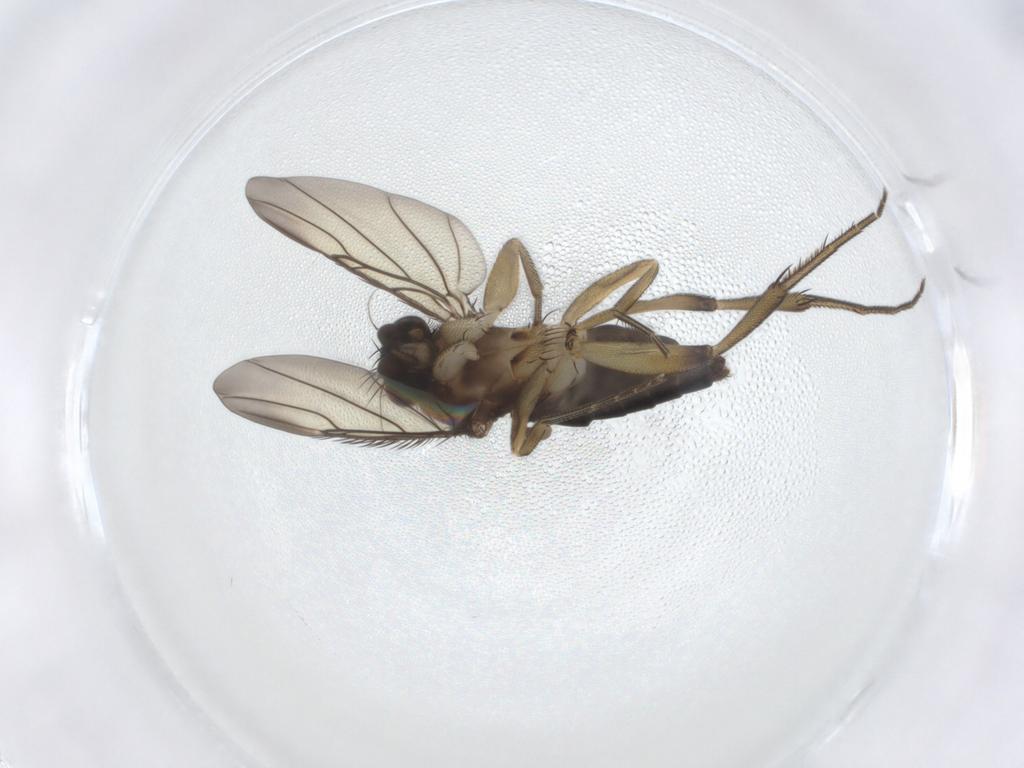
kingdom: Animalia
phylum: Arthropoda
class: Insecta
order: Diptera
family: Phoridae
